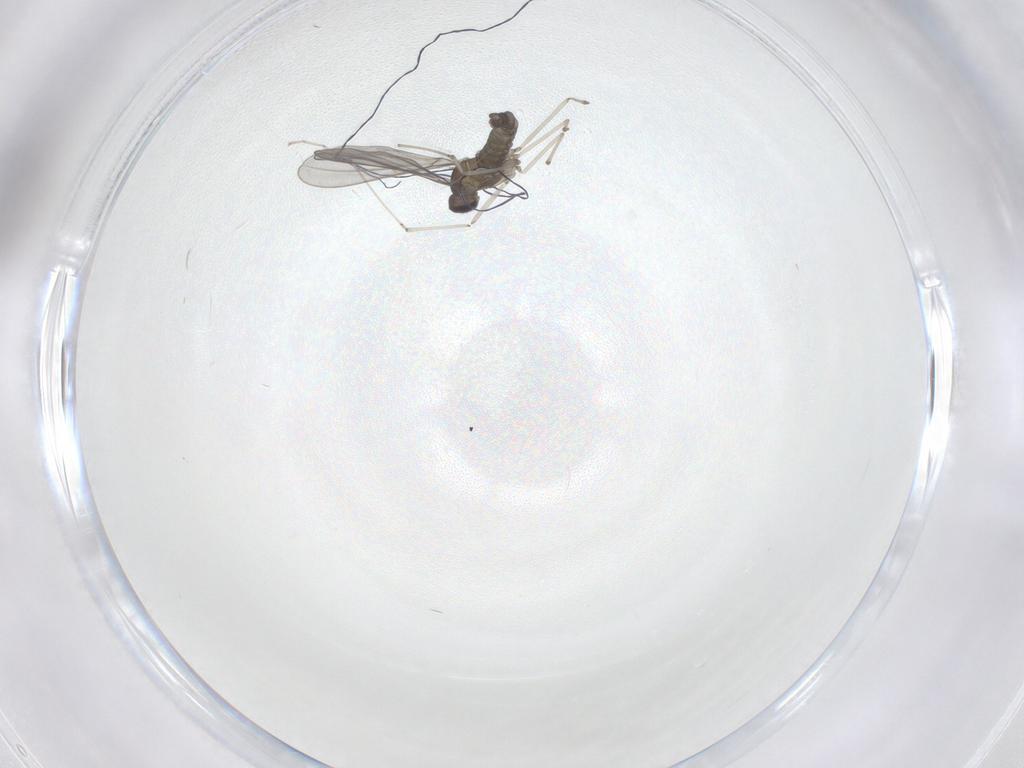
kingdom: Animalia
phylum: Arthropoda
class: Insecta
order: Diptera
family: Cecidomyiidae
